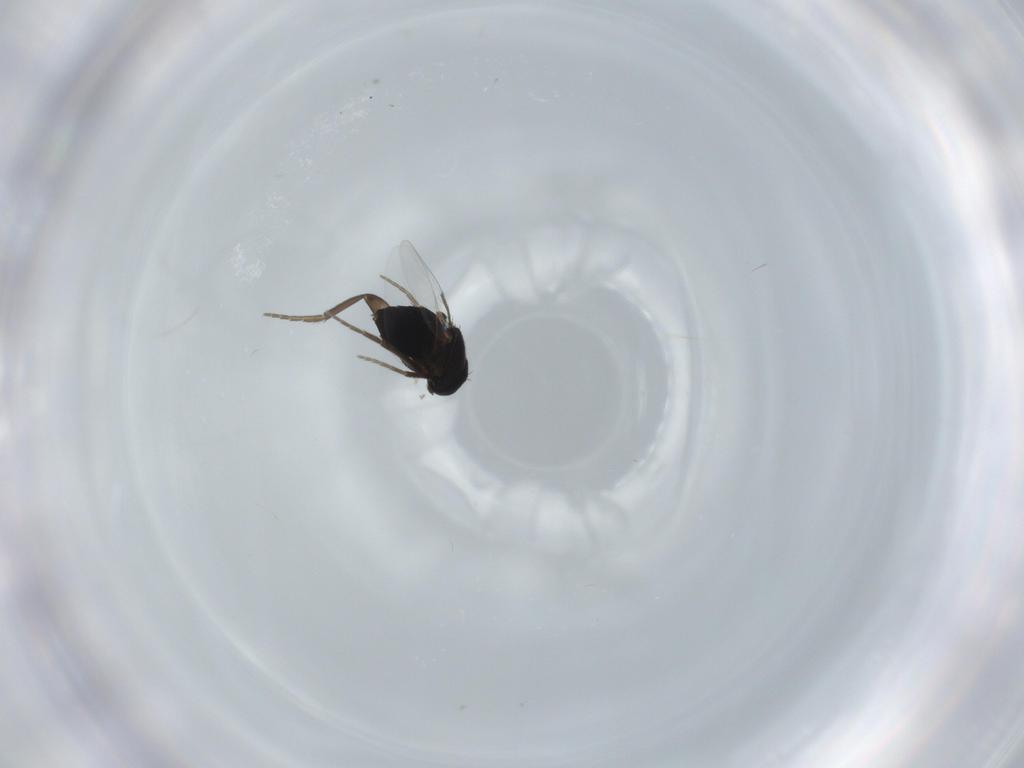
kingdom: Animalia
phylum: Arthropoda
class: Insecta
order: Diptera
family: Phoridae
